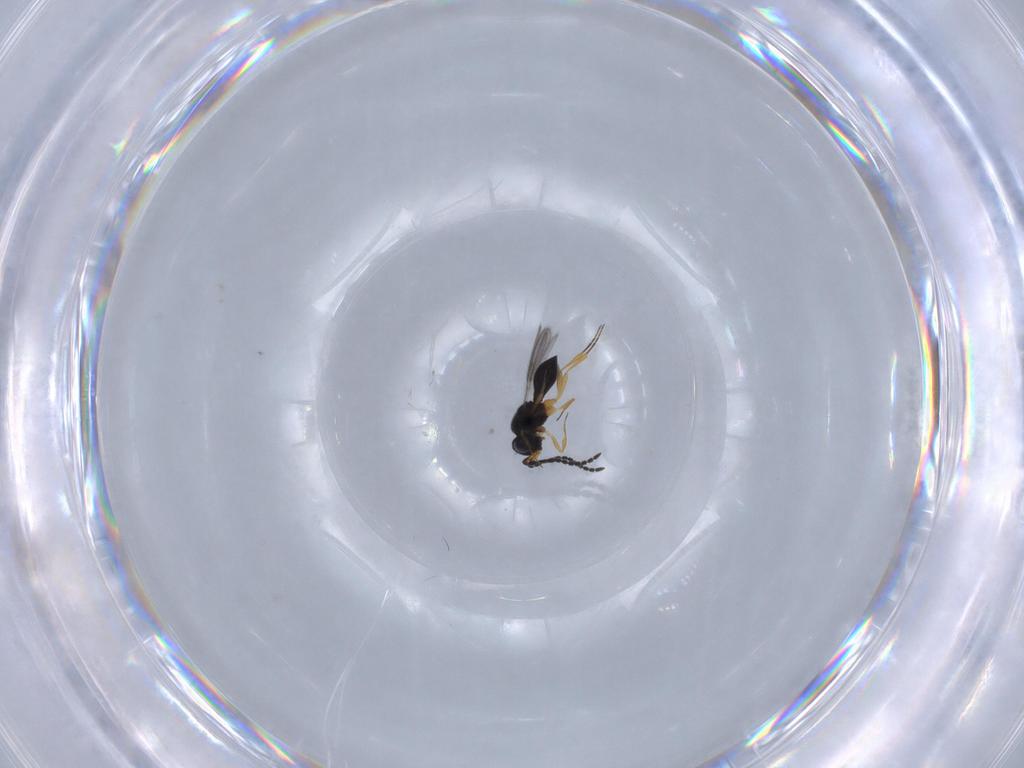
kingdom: Animalia
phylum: Arthropoda
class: Insecta
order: Hymenoptera
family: Scelionidae
